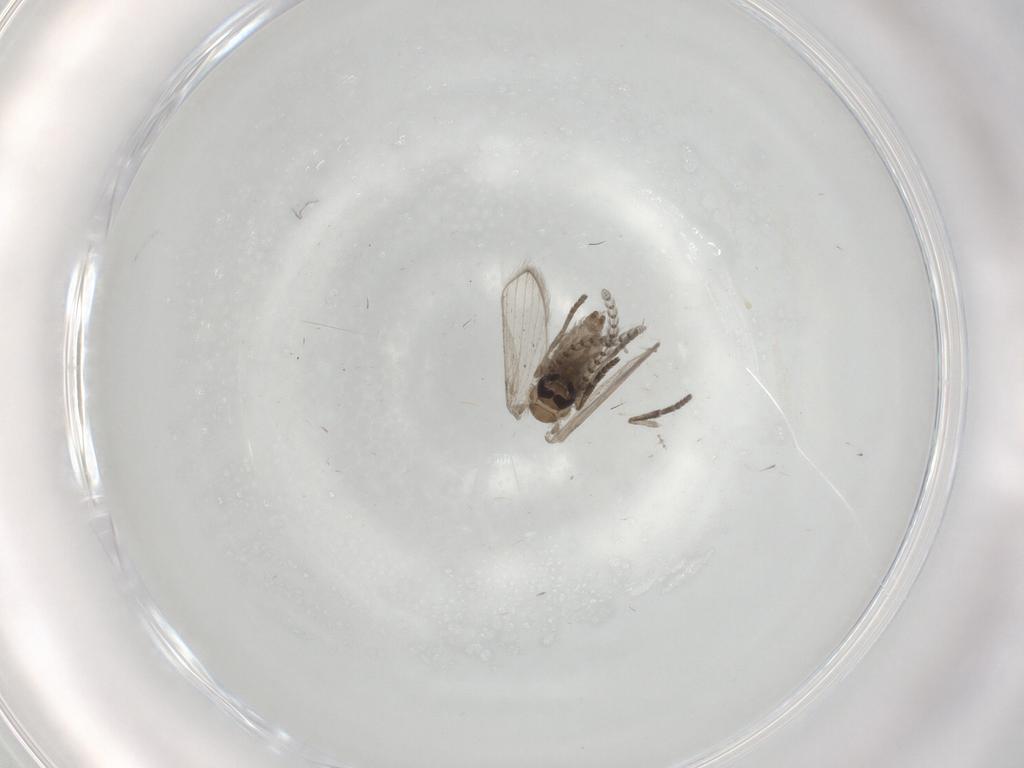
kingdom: Animalia
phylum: Arthropoda
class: Insecta
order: Diptera
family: Psychodidae
